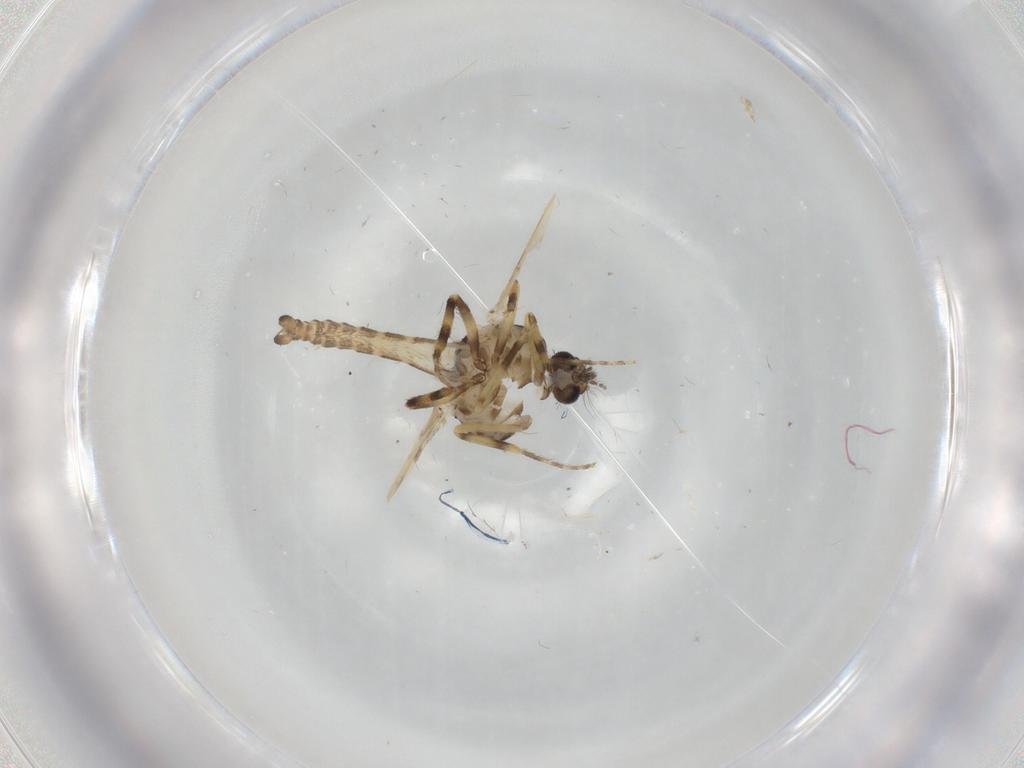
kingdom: Animalia
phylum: Arthropoda
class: Insecta
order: Diptera
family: Ceratopogonidae
